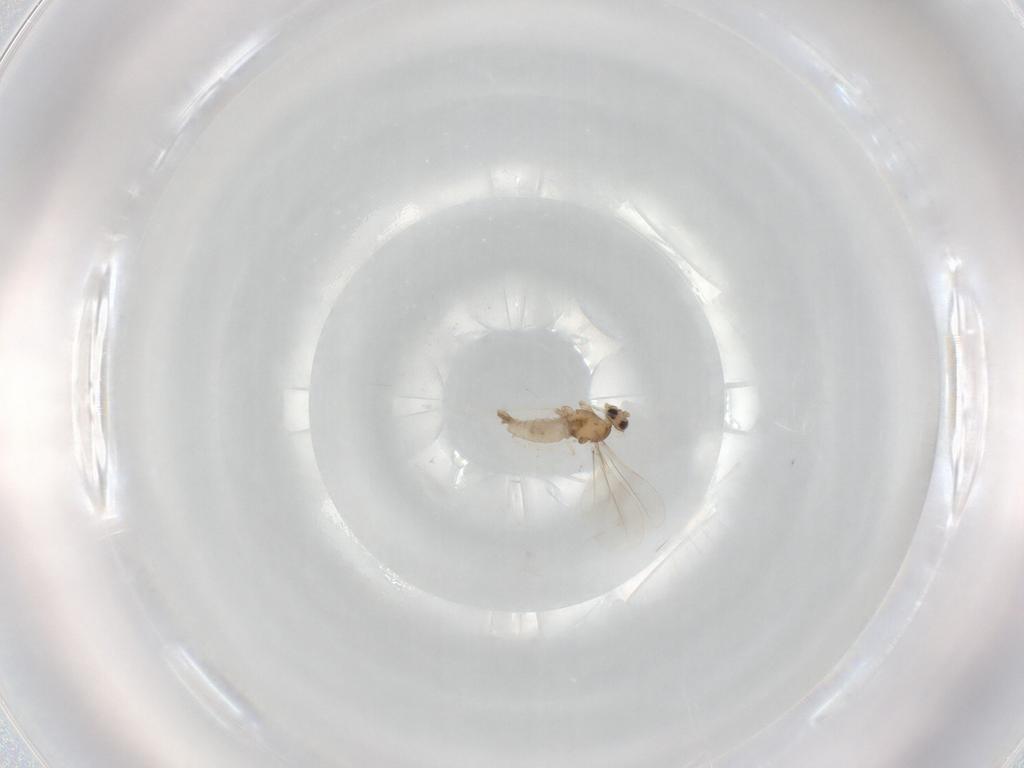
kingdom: Animalia
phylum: Arthropoda
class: Insecta
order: Diptera
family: Cecidomyiidae
